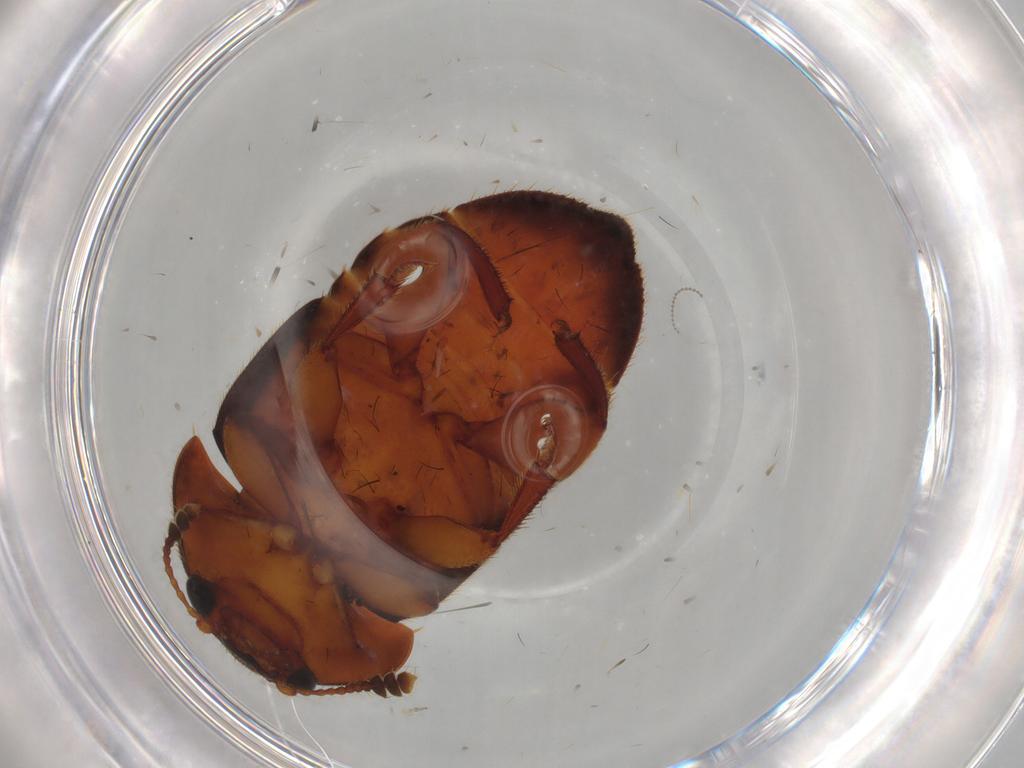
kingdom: Animalia
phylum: Arthropoda
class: Insecta
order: Coleoptera
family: Nitidulidae
